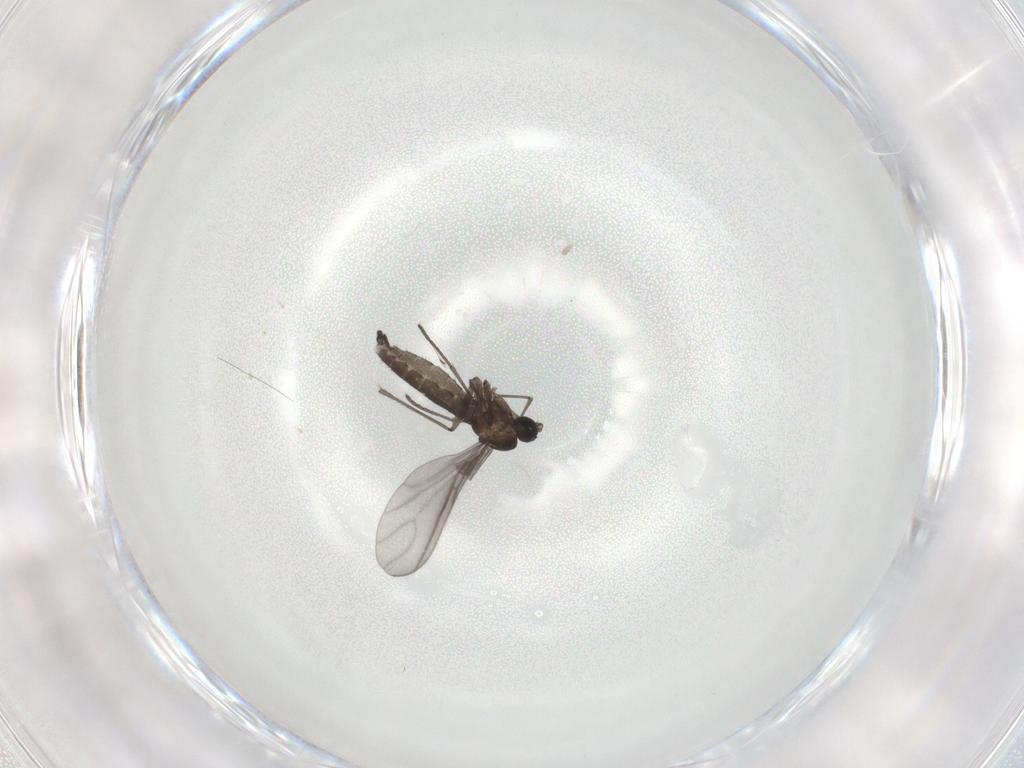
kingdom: Animalia
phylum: Arthropoda
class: Insecta
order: Diptera
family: Sciaridae
